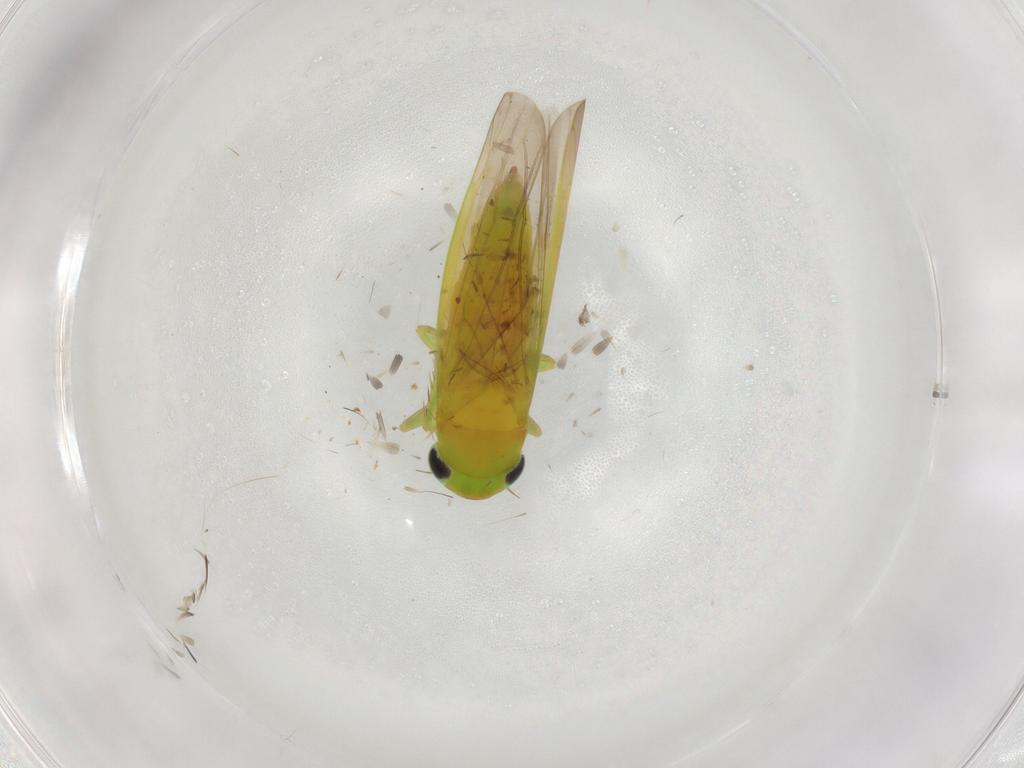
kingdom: Animalia
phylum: Arthropoda
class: Insecta
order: Hemiptera
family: Cicadellidae
